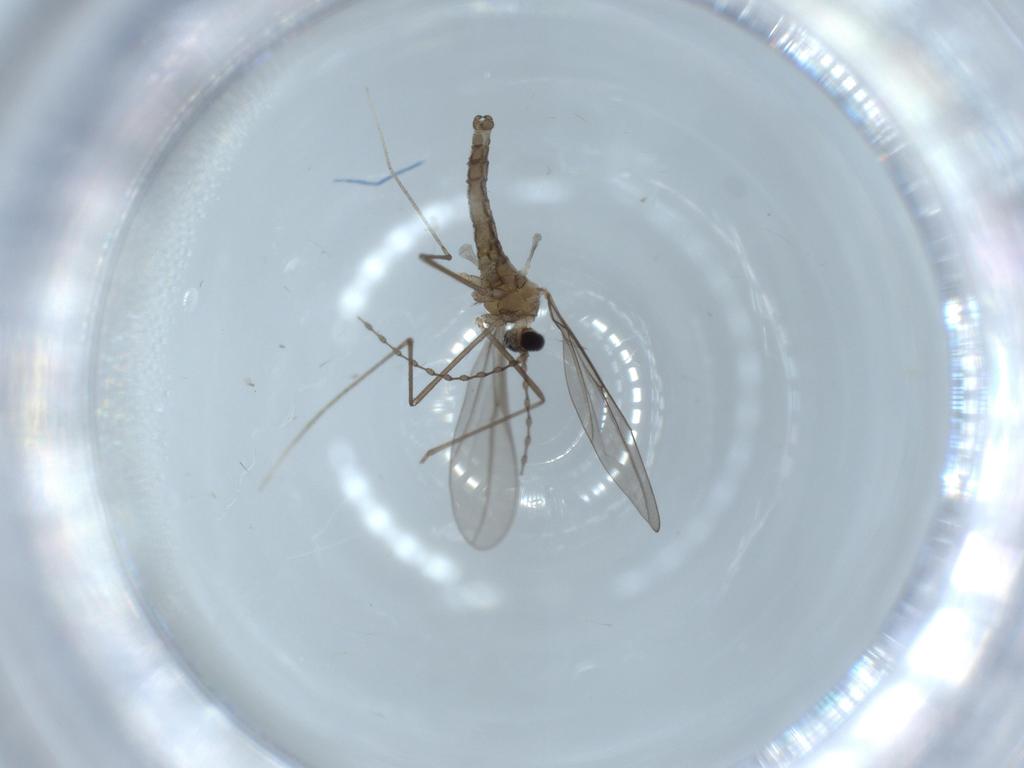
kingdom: Animalia
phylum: Arthropoda
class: Insecta
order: Diptera
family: Cecidomyiidae
